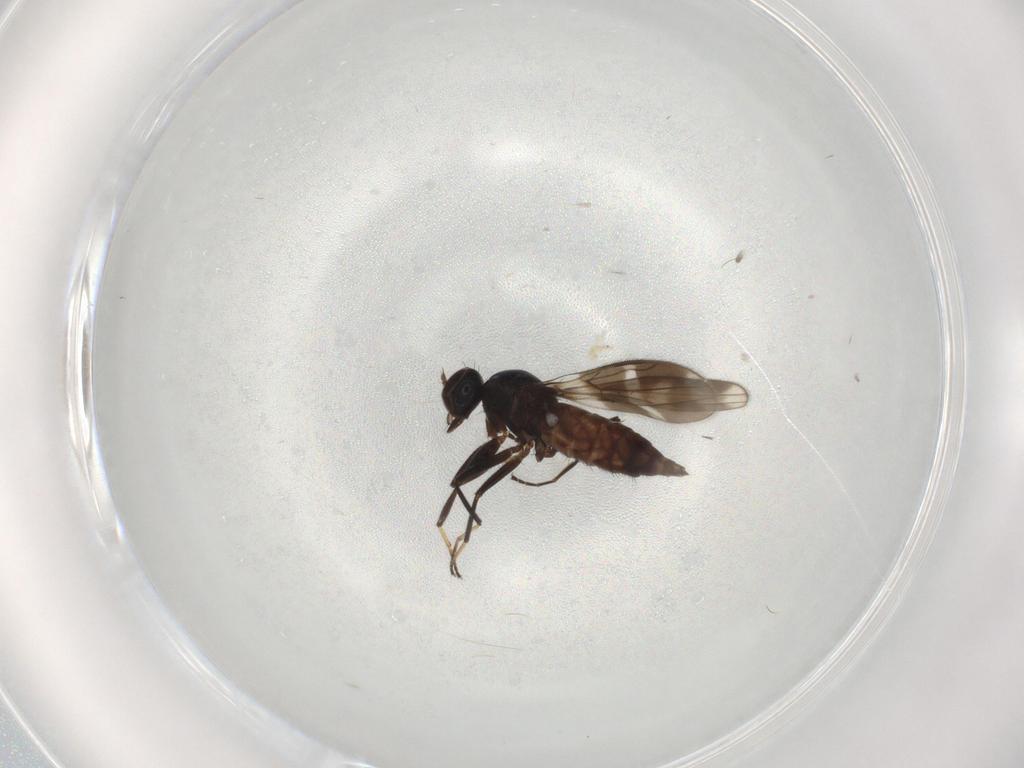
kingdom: Animalia
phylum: Arthropoda
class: Insecta
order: Diptera
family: Hybotidae
